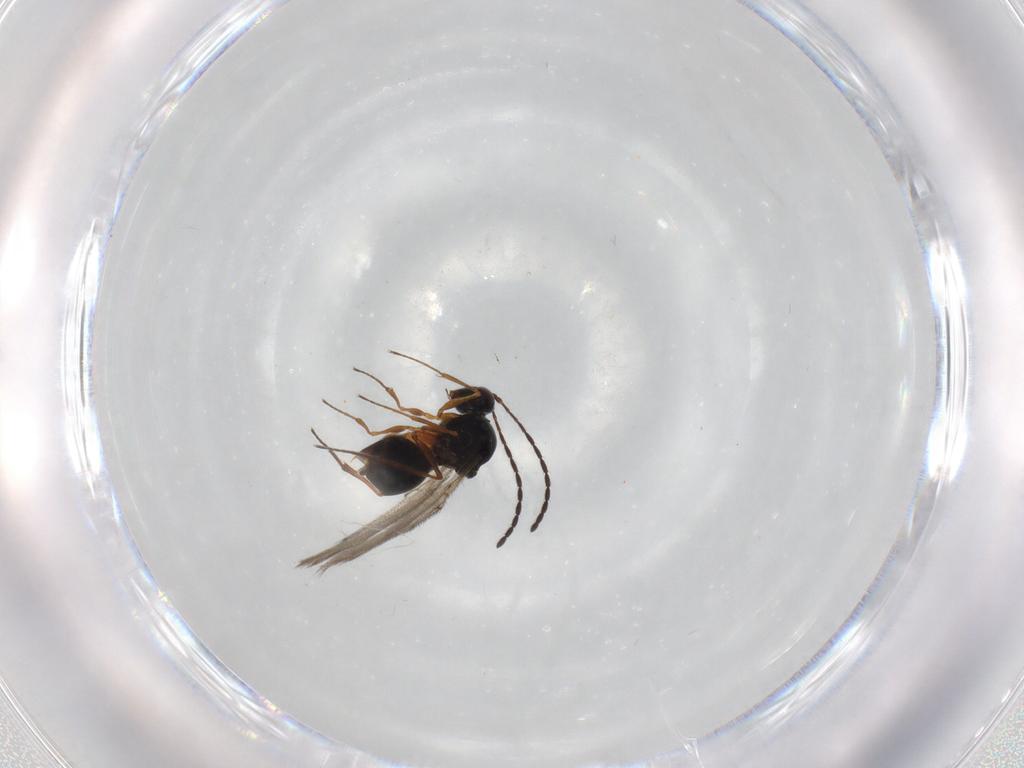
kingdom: Animalia
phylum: Arthropoda
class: Insecta
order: Hymenoptera
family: Figitidae
